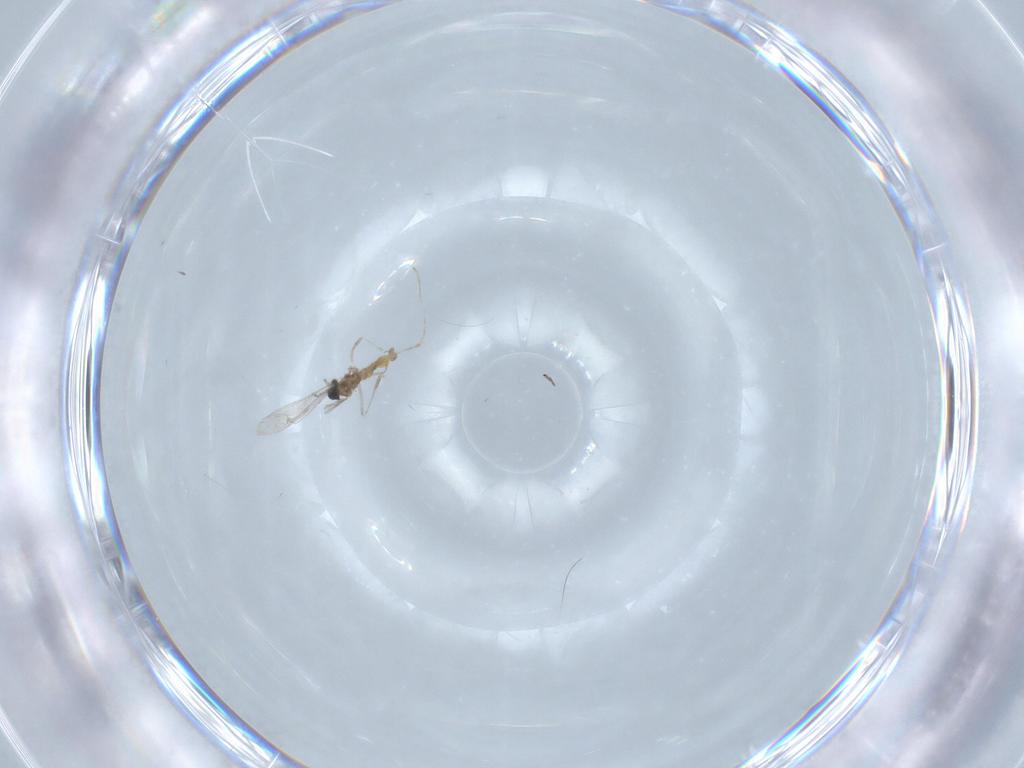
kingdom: Animalia
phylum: Arthropoda
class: Insecta
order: Diptera
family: Cecidomyiidae
